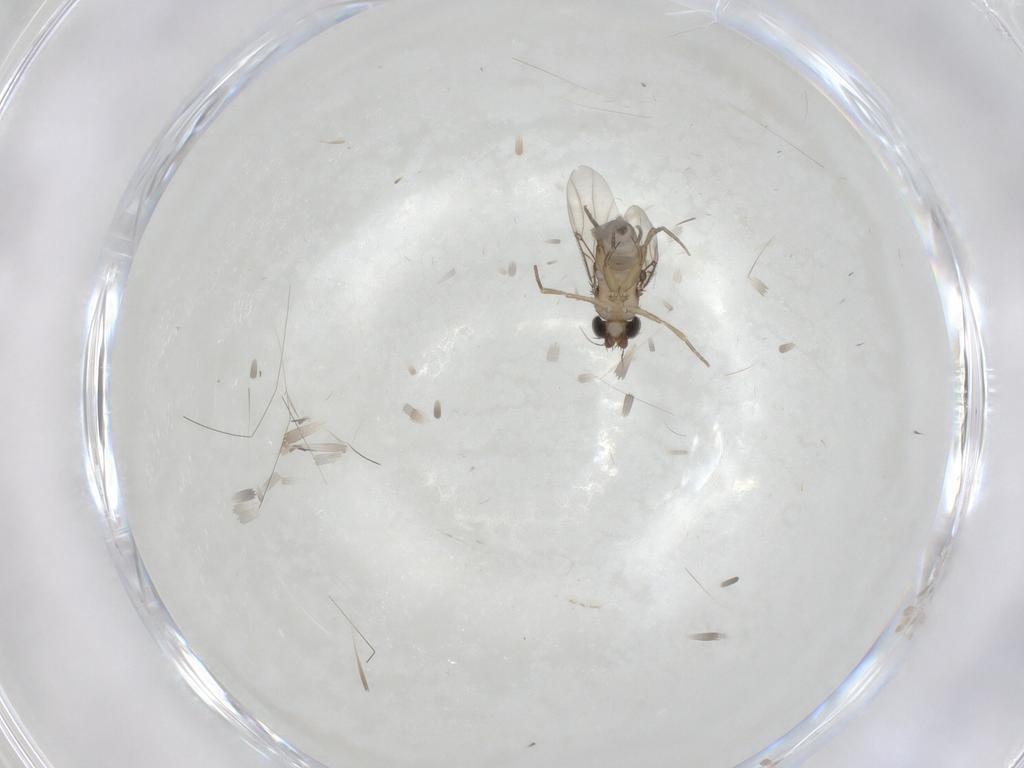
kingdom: Animalia
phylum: Arthropoda
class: Insecta
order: Diptera
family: Phoridae
